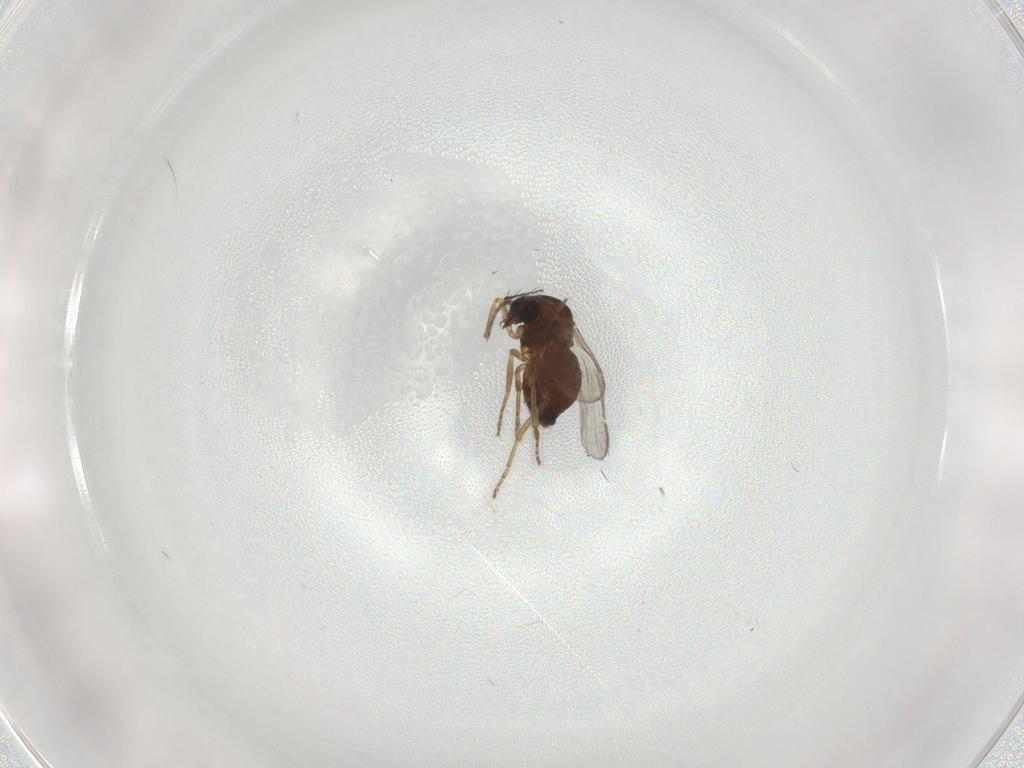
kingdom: Animalia
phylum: Arthropoda
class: Insecta
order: Diptera
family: Ceratopogonidae
